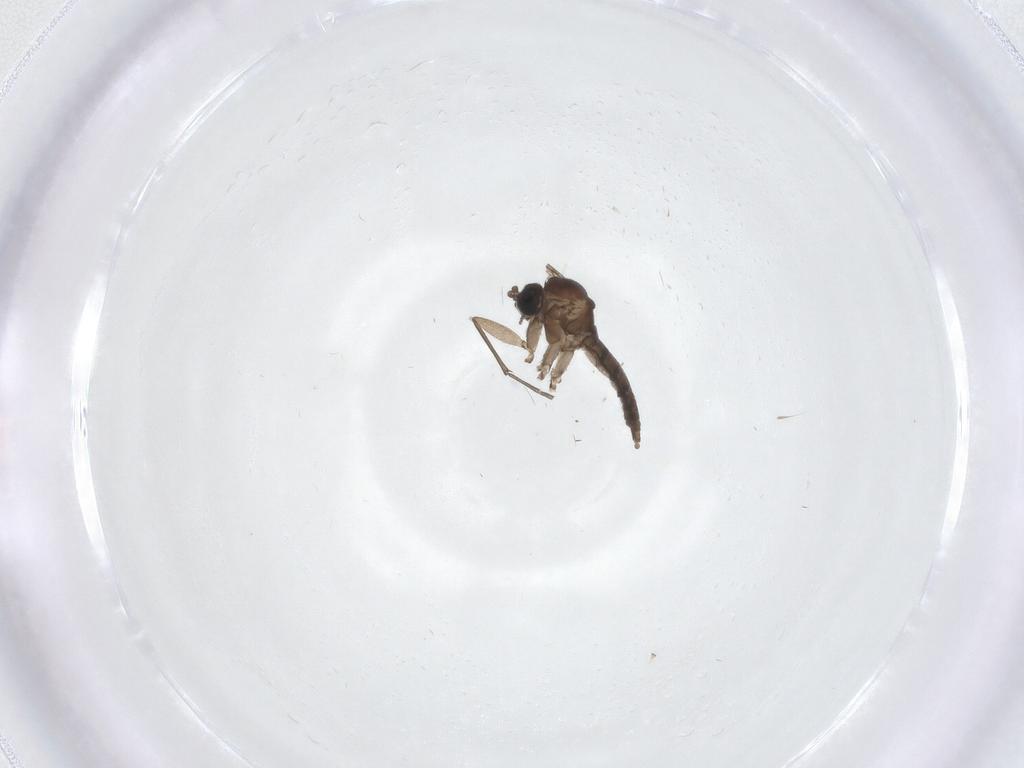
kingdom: Animalia
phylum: Arthropoda
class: Insecta
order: Diptera
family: Sciaridae
